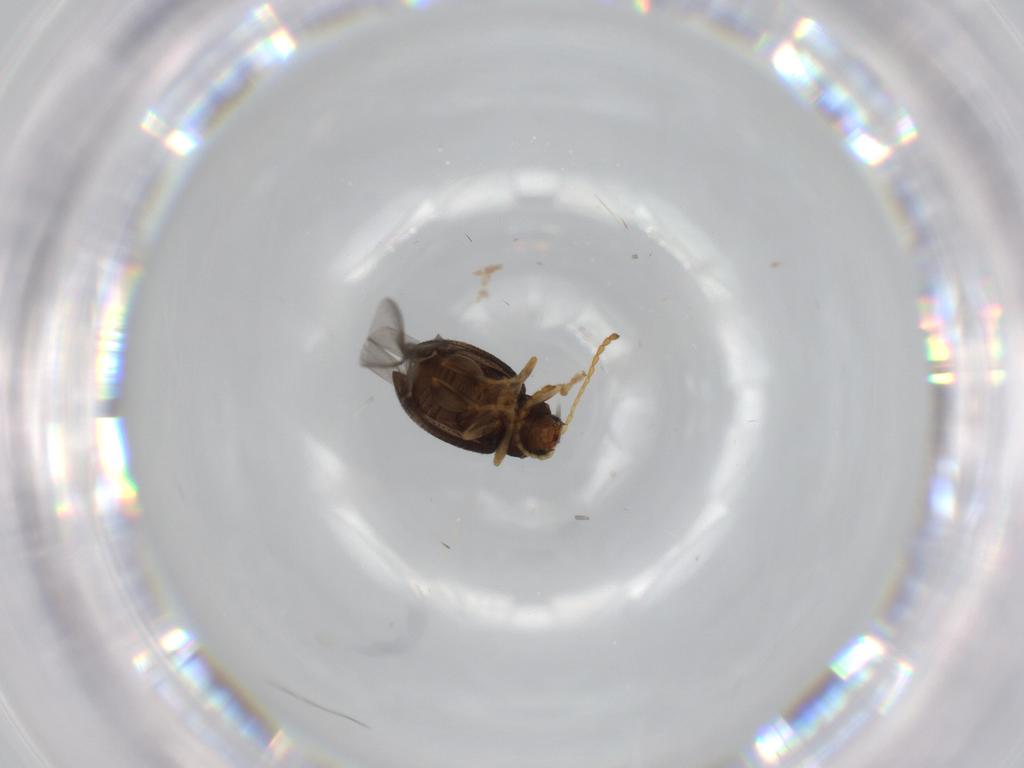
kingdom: Animalia
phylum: Arthropoda
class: Insecta
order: Coleoptera
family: Chrysomelidae
